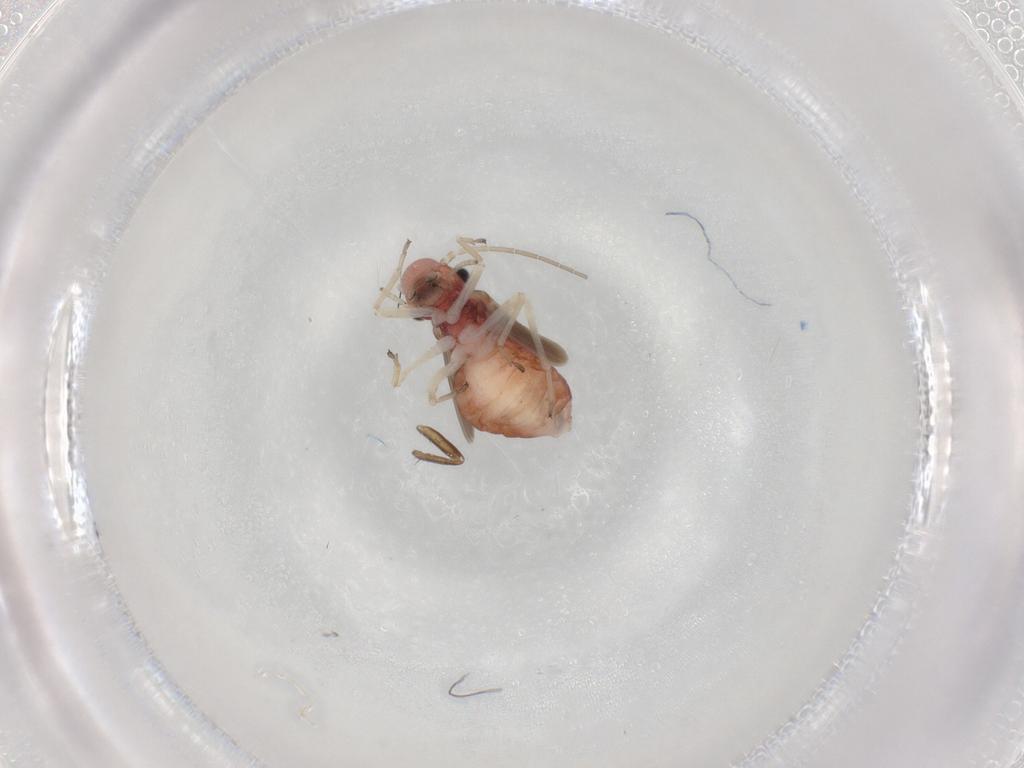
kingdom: Animalia
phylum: Arthropoda
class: Insecta
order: Psocodea
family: Caeciliusidae
